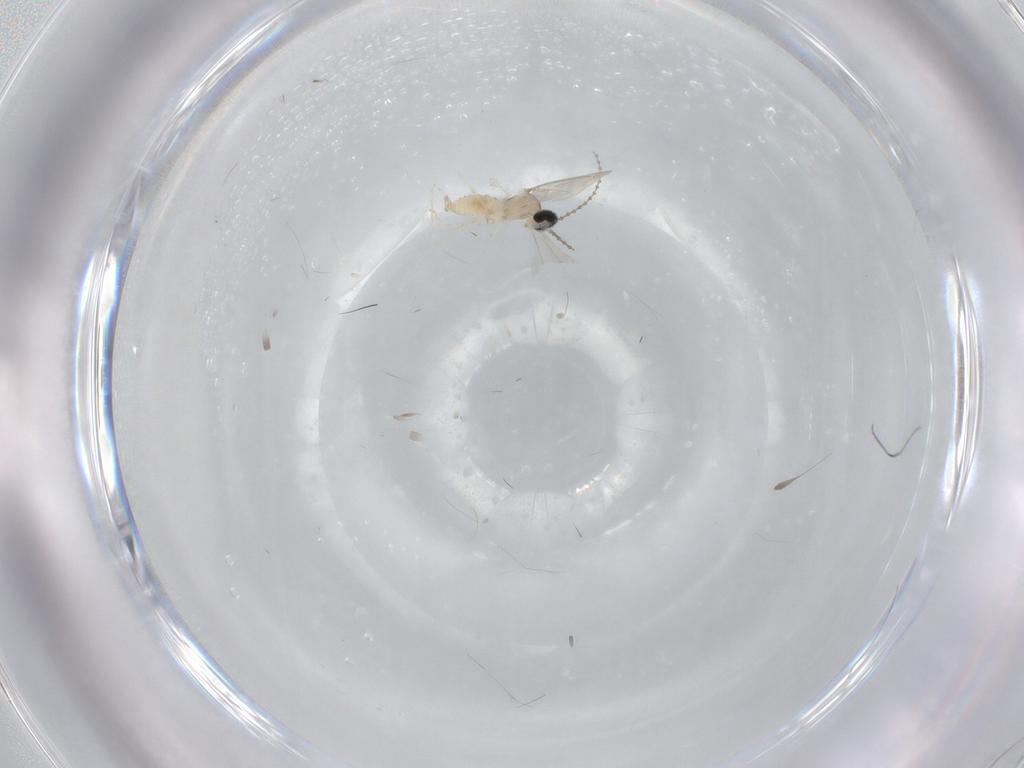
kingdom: Animalia
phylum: Arthropoda
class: Insecta
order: Diptera
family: Cecidomyiidae
